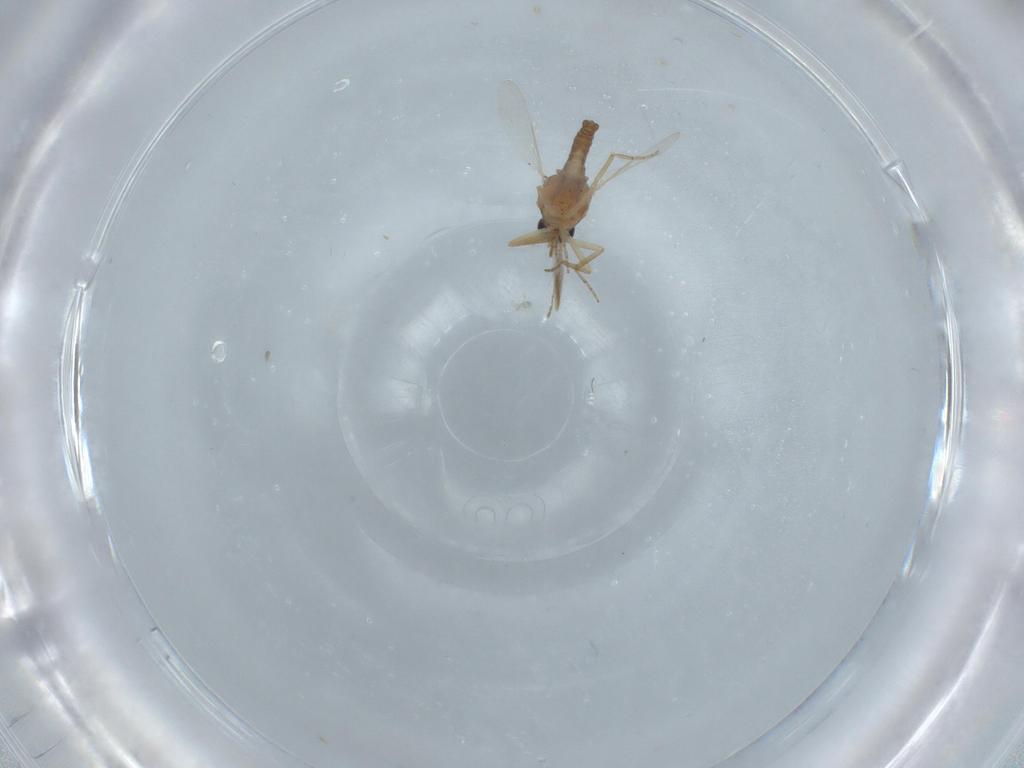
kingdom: Animalia
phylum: Arthropoda
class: Insecta
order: Diptera
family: Ceratopogonidae
